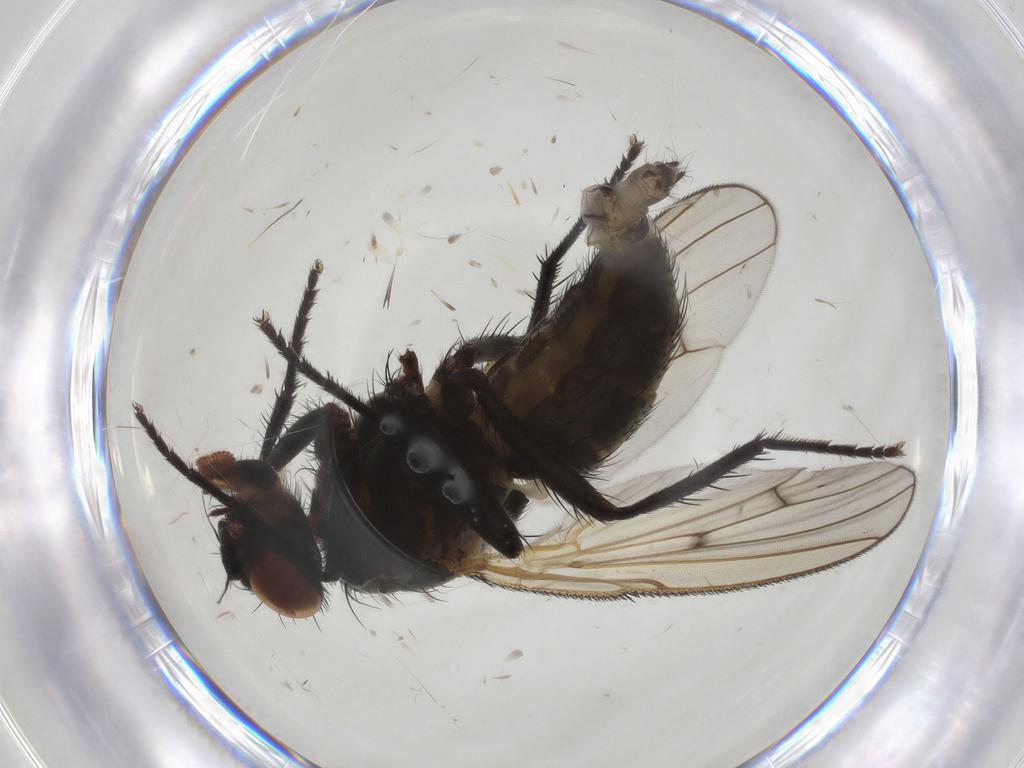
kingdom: Animalia
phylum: Arthropoda
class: Insecta
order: Diptera
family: Anthomyiidae
